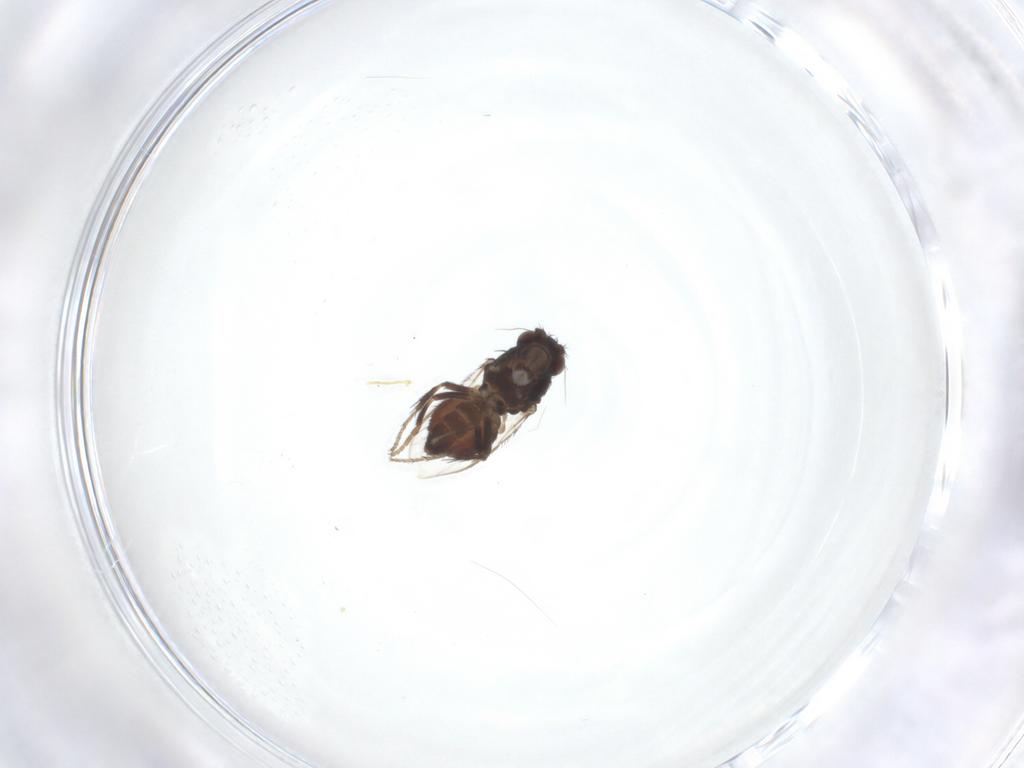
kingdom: Animalia
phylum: Arthropoda
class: Insecta
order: Diptera
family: Sphaeroceridae
